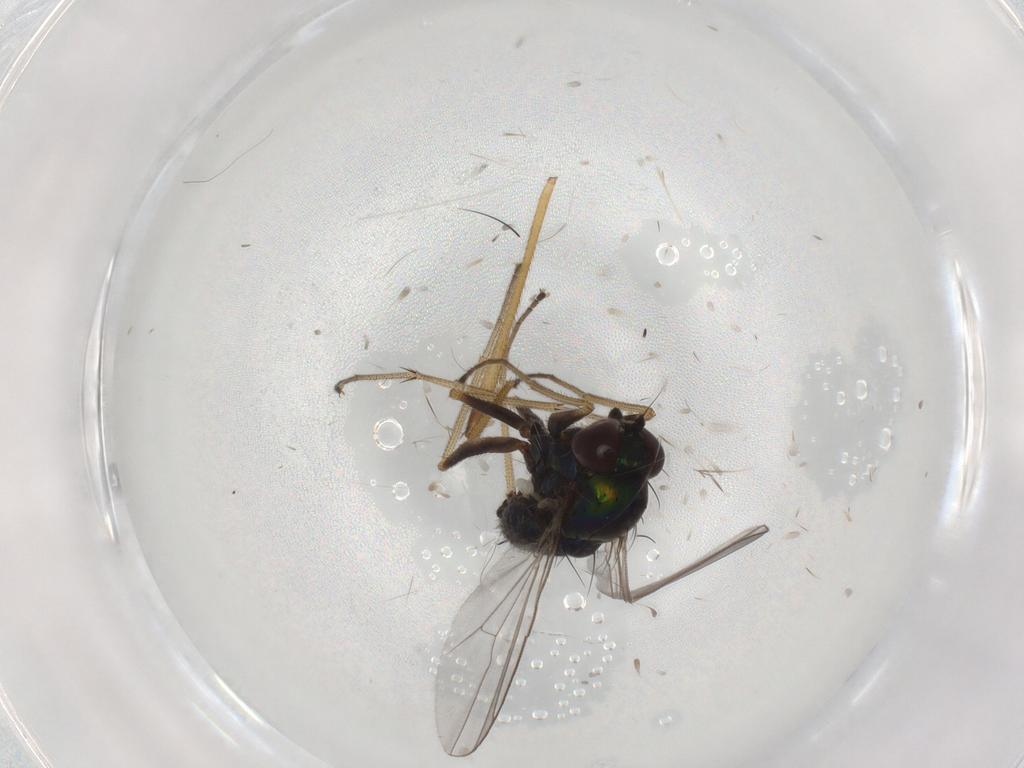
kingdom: Animalia
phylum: Arthropoda
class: Insecta
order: Diptera
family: Dolichopodidae
